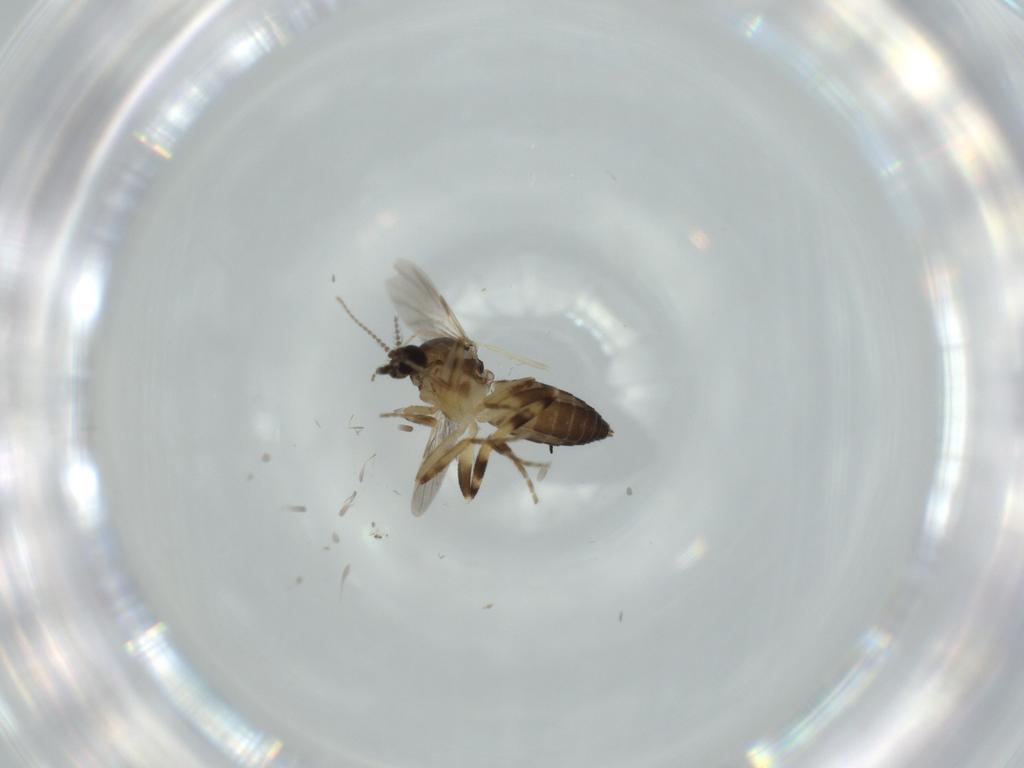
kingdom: Animalia
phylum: Arthropoda
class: Insecta
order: Diptera
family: Ceratopogonidae
